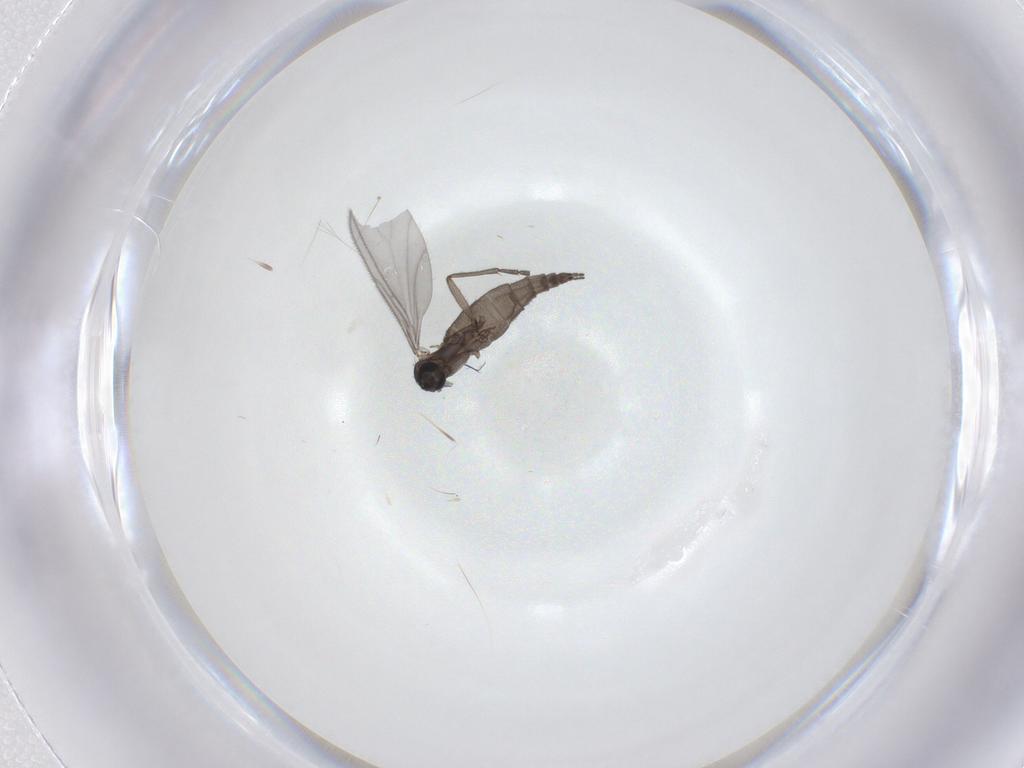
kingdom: Animalia
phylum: Arthropoda
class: Insecta
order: Diptera
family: Sciaridae
